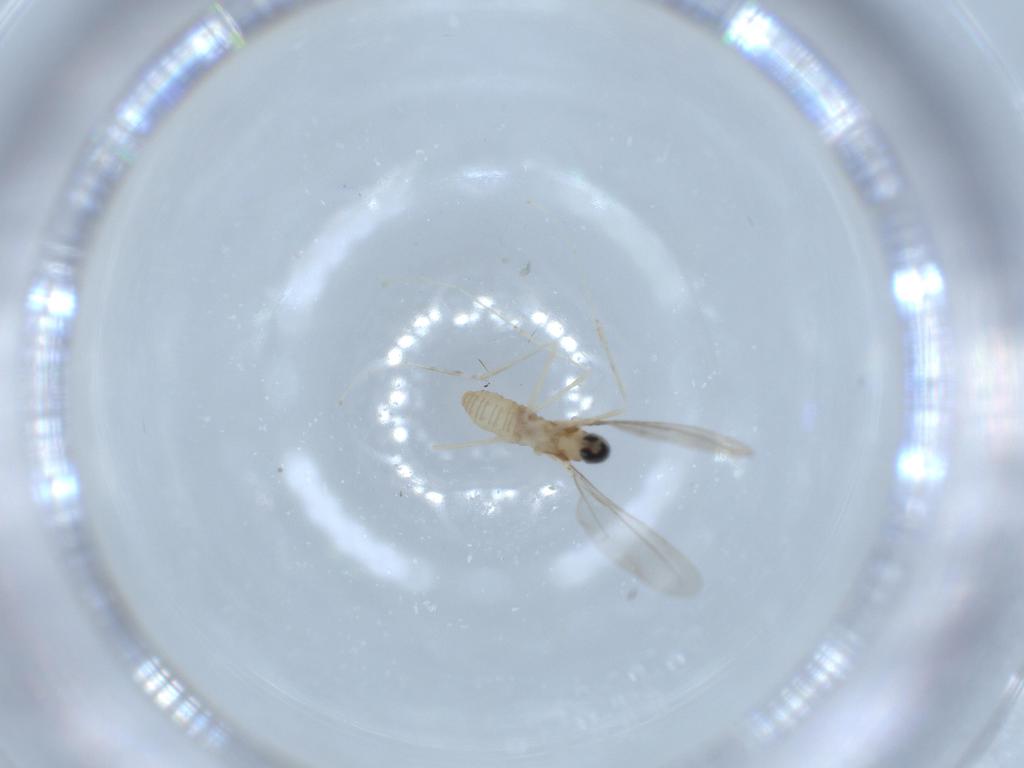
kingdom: Animalia
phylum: Arthropoda
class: Insecta
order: Diptera
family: Cecidomyiidae
